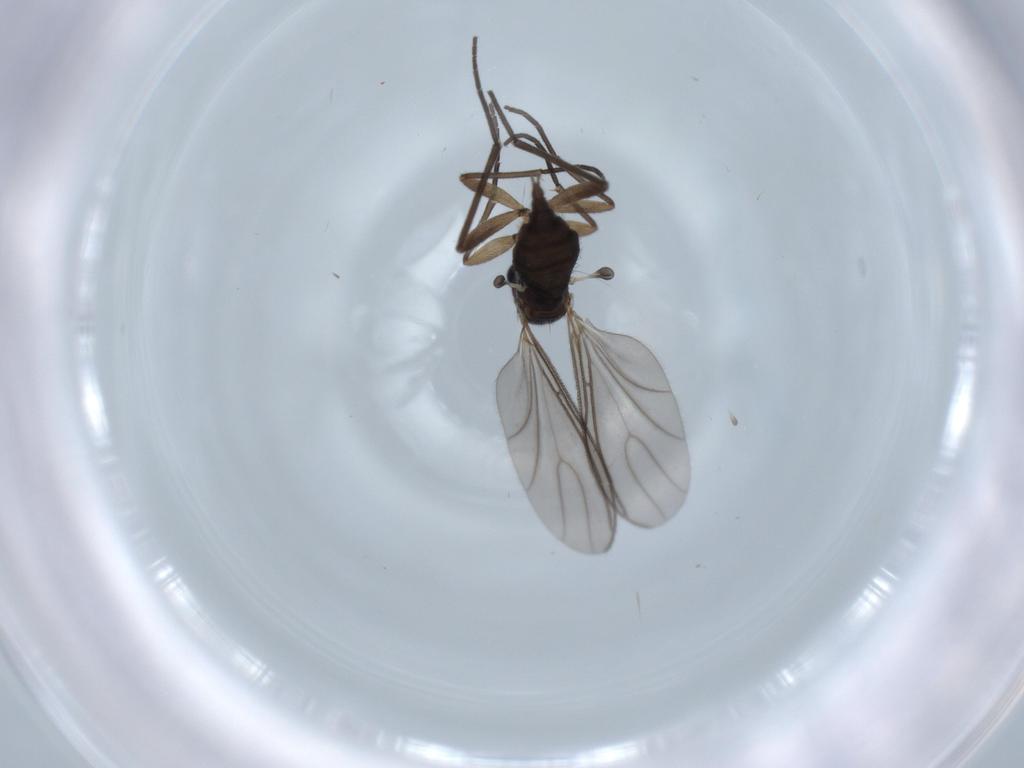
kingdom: Animalia
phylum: Arthropoda
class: Insecta
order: Diptera
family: Sciaridae
